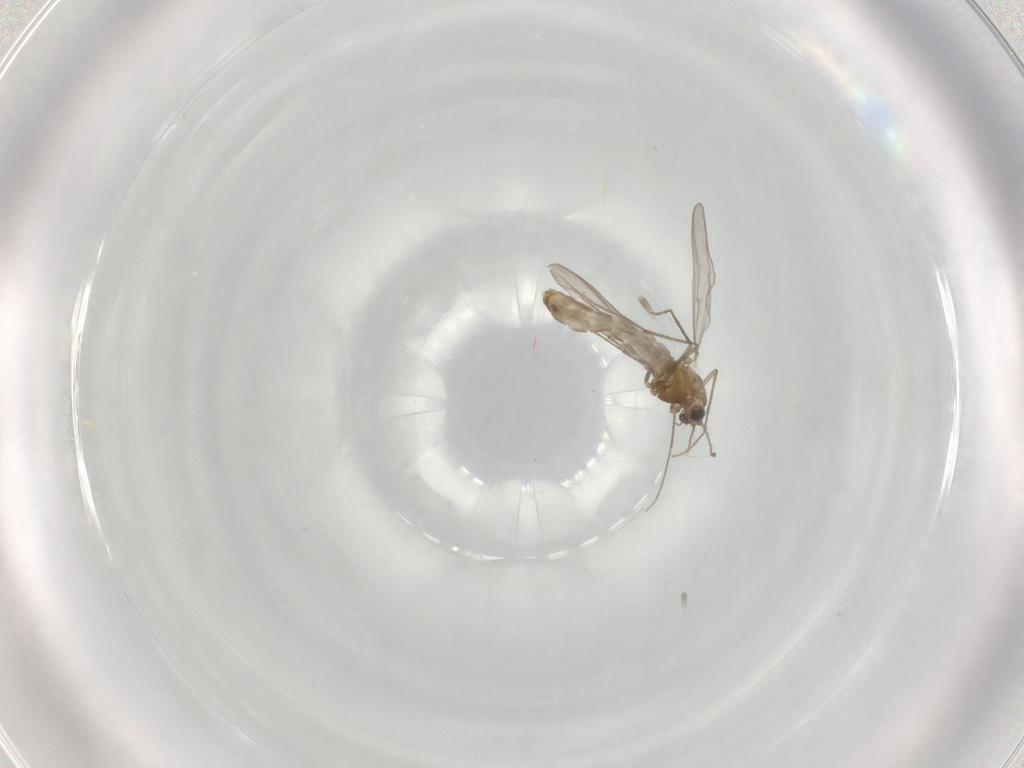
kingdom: Animalia
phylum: Arthropoda
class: Insecta
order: Diptera
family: Chironomidae
